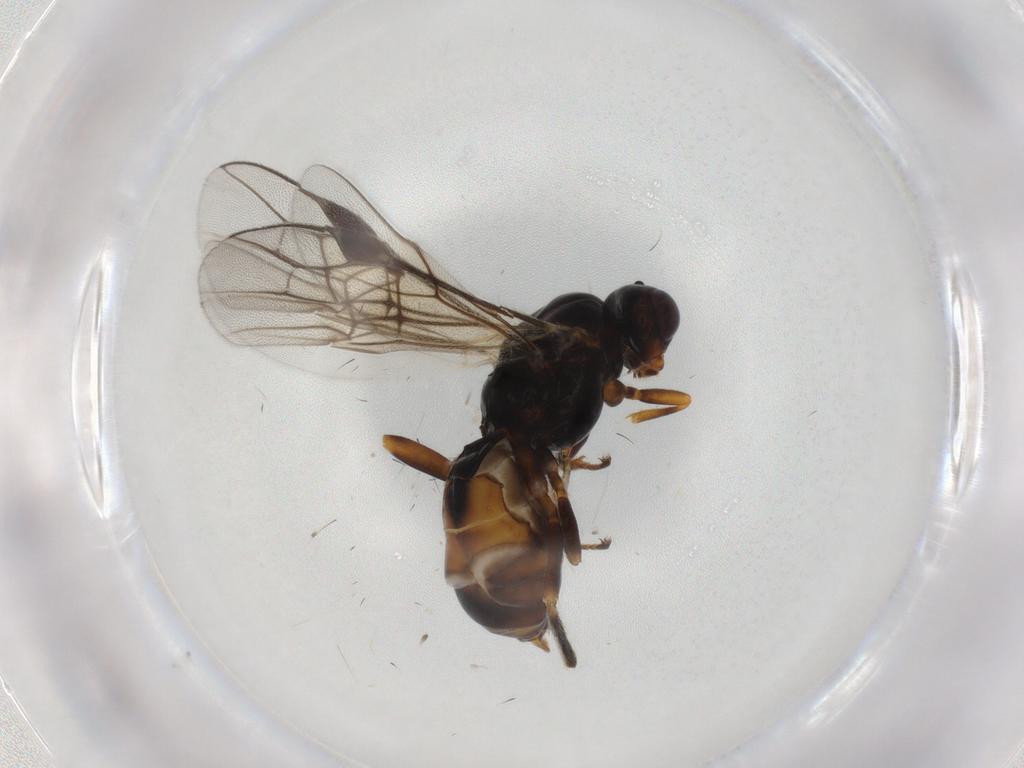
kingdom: Animalia
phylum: Arthropoda
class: Insecta
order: Hymenoptera
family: Braconidae
